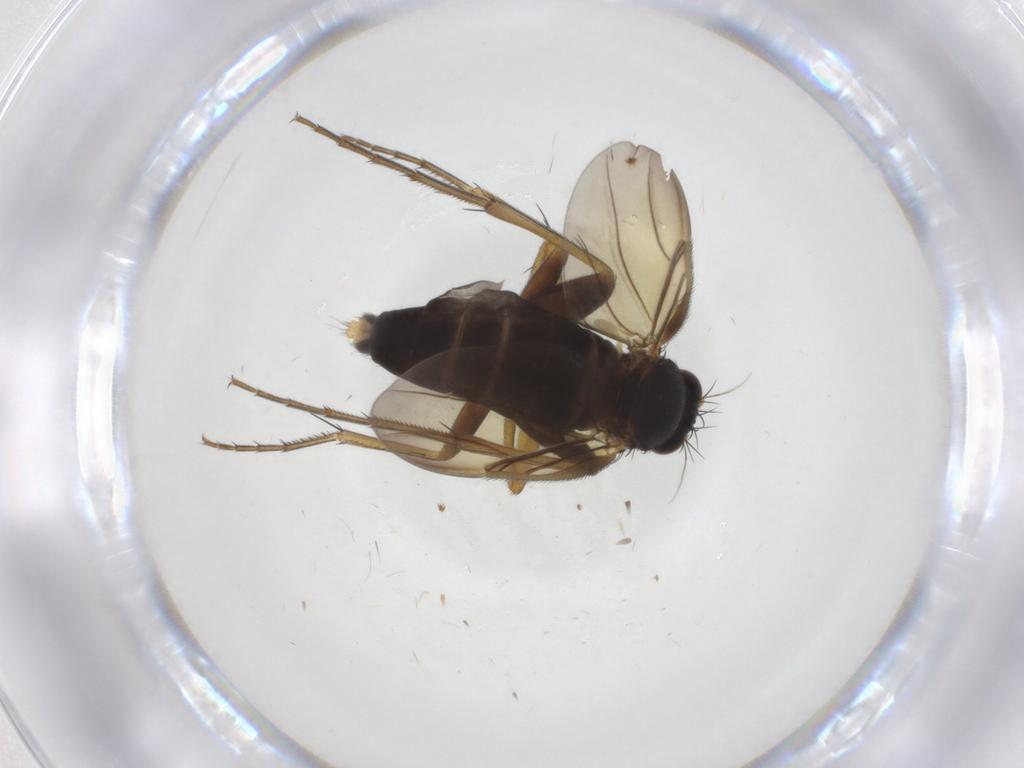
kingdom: Animalia
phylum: Arthropoda
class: Insecta
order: Diptera
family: Phoridae
